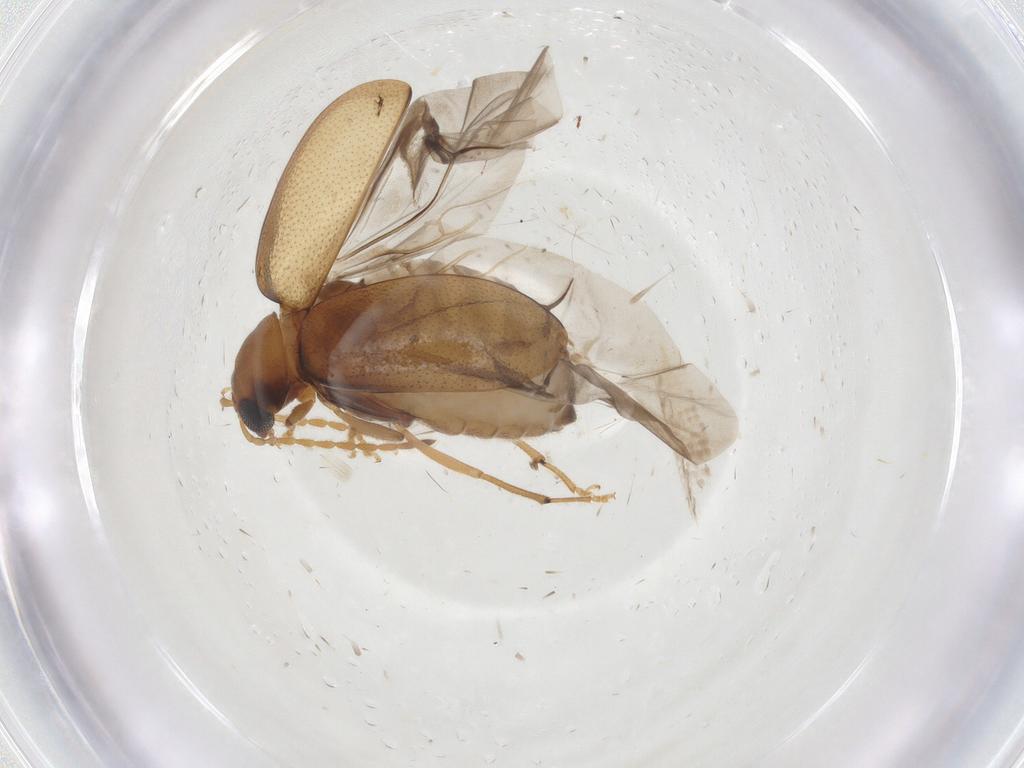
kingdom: Animalia
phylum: Arthropoda
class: Insecta
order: Coleoptera
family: Chrysomelidae
